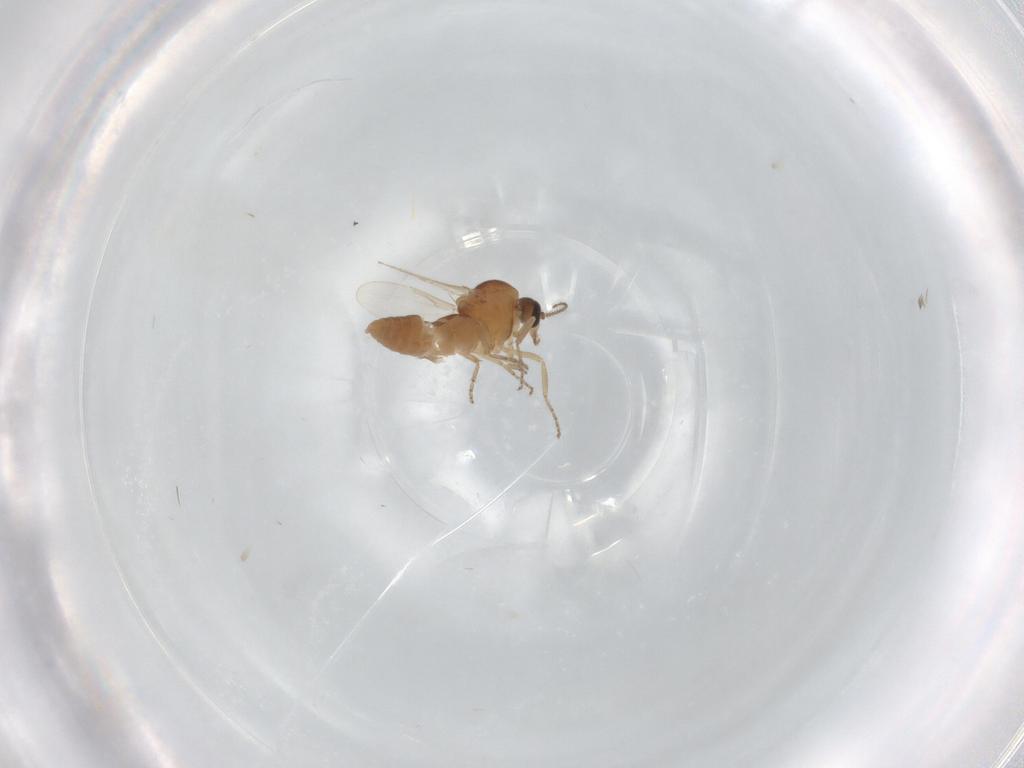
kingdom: Animalia
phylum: Arthropoda
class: Insecta
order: Diptera
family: Ceratopogonidae
